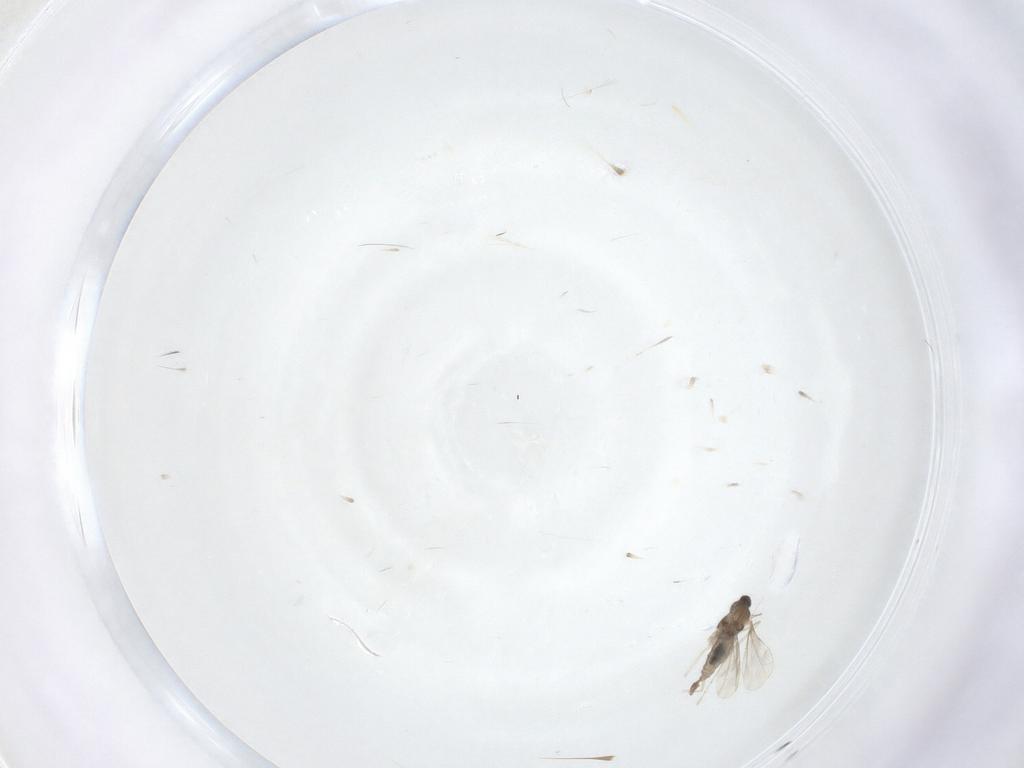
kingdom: Animalia
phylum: Arthropoda
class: Insecta
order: Diptera
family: Cecidomyiidae
